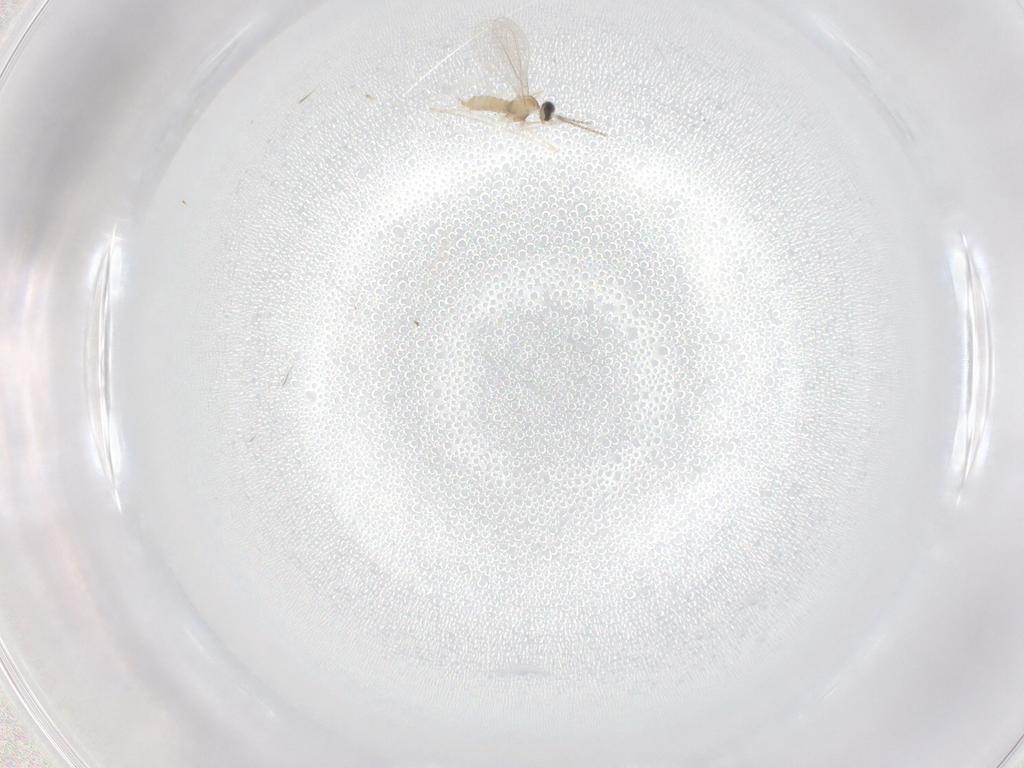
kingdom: Animalia
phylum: Arthropoda
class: Insecta
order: Diptera
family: Cecidomyiidae
